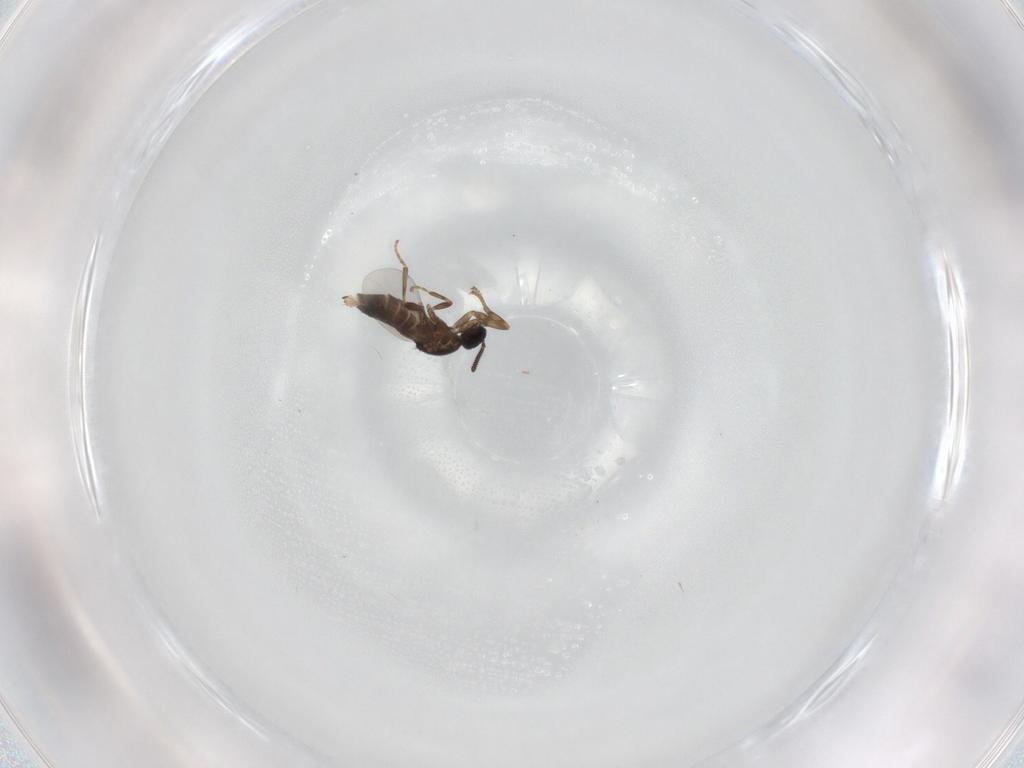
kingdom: Animalia
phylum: Arthropoda
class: Insecta
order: Diptera
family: Scatopsidae
